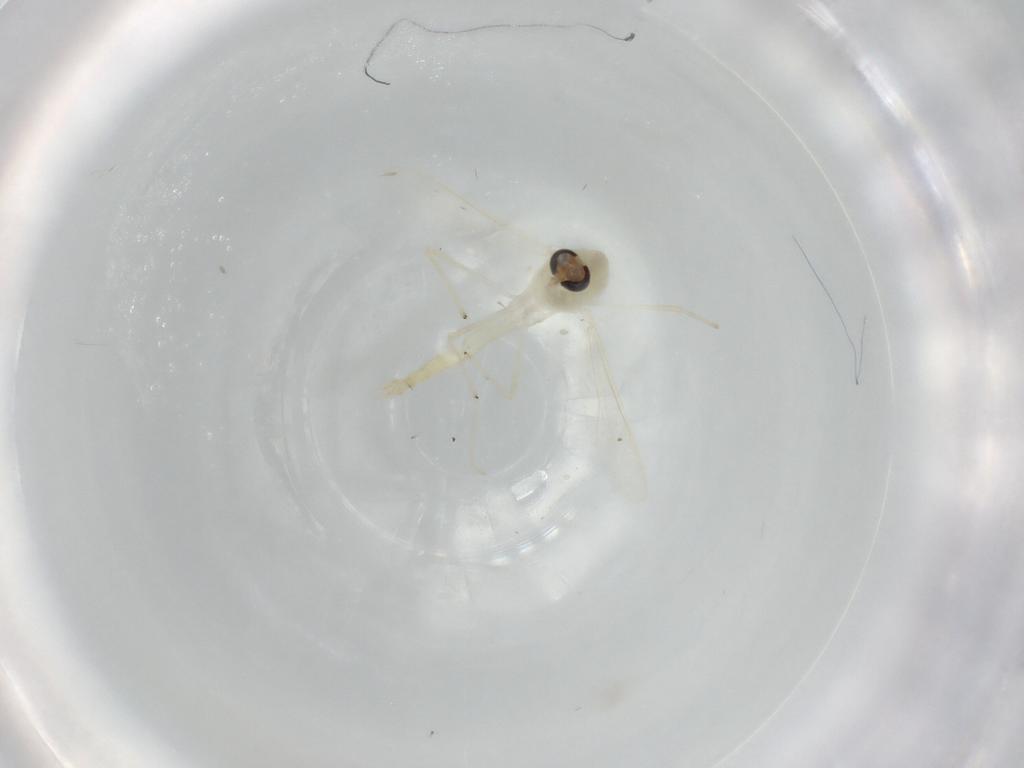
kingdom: Animalia
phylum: Arthropoda
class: Insecta
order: Diptera
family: Chironomidae
